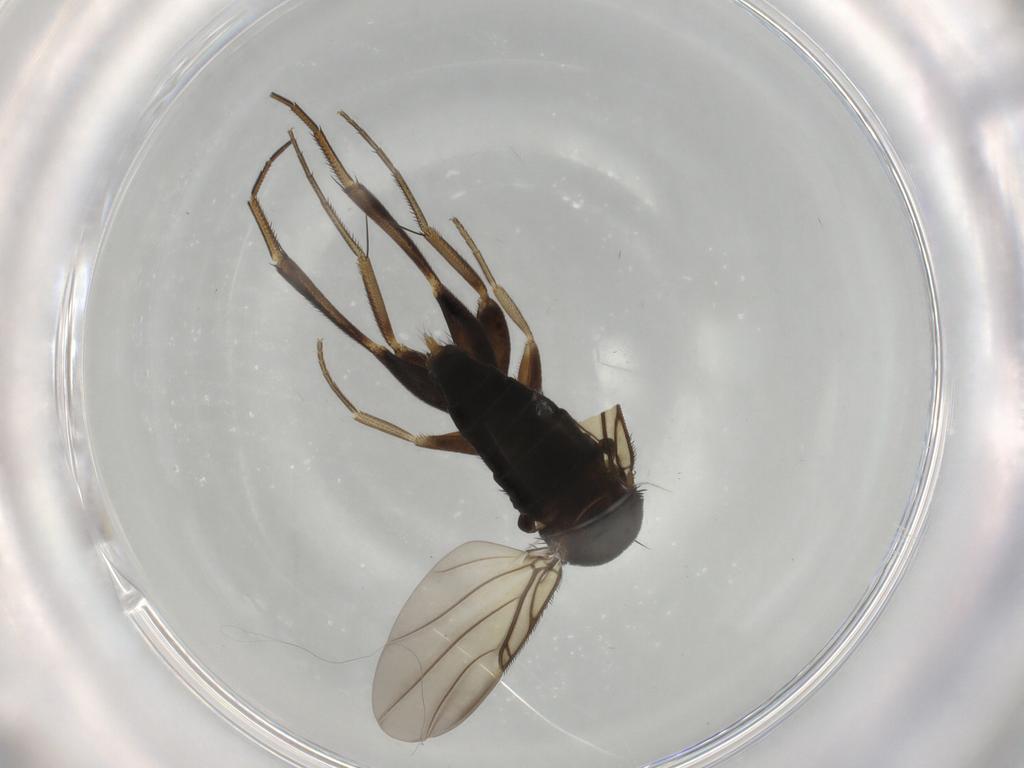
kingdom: Animalia
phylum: Arthropoda
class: Insecta
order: Diptera
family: Phoridae
